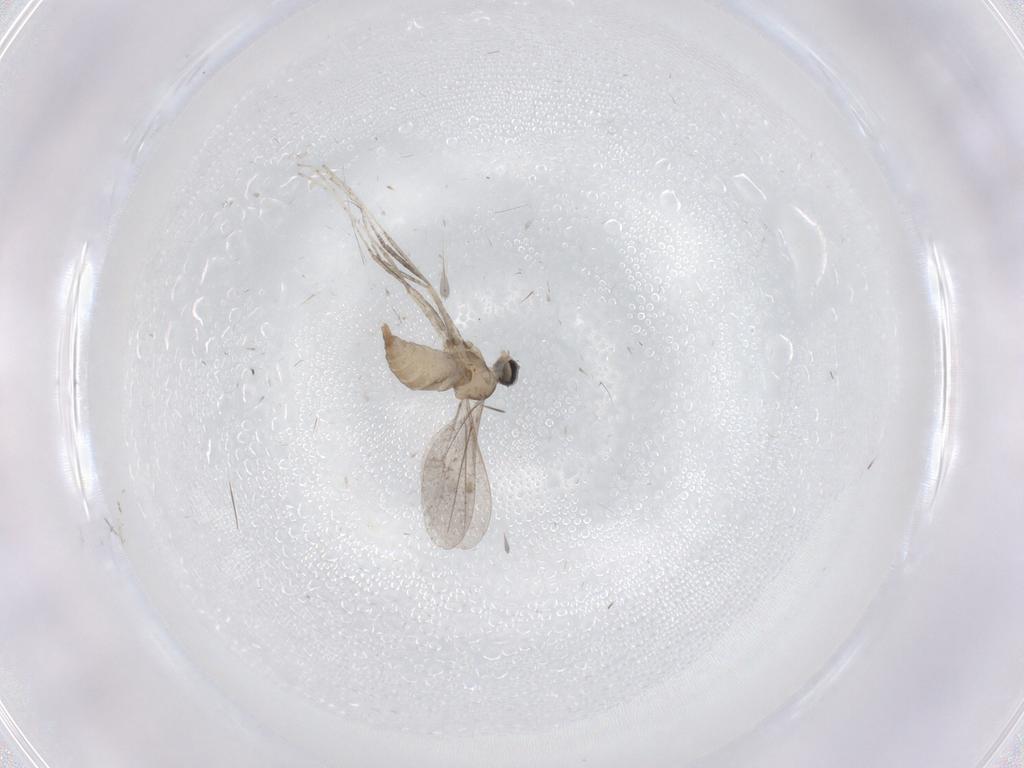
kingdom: Animalia
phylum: Arthropoda
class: Insecta
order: Diptera
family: Cecidomyiidae
